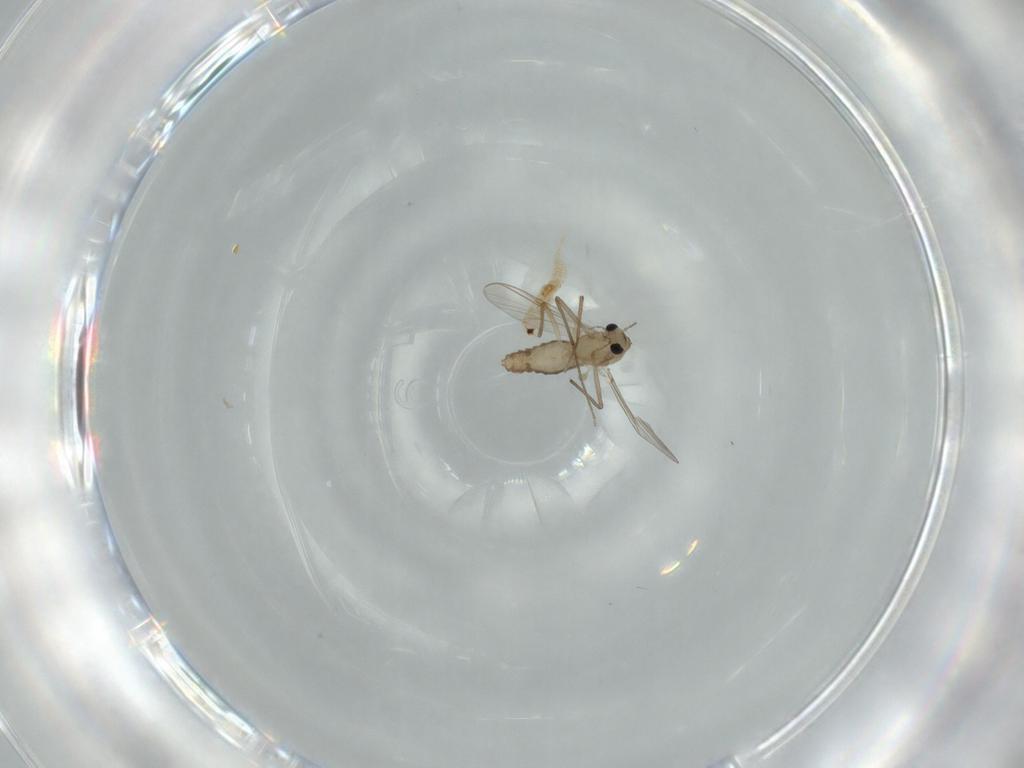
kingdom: Animalia
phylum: Arthropoda
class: Insecta
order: Diptera
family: Chironomidae
